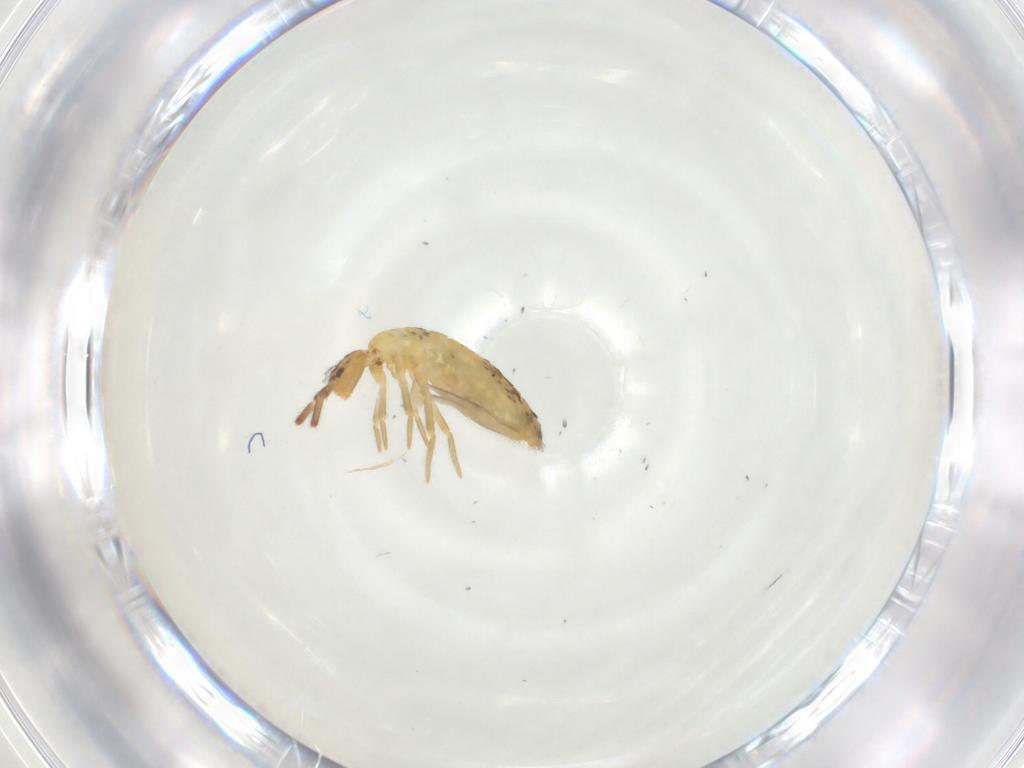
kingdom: Animalia
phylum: Arthropoda
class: Collembola
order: Entomobryomorpha
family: Entomobryidae
